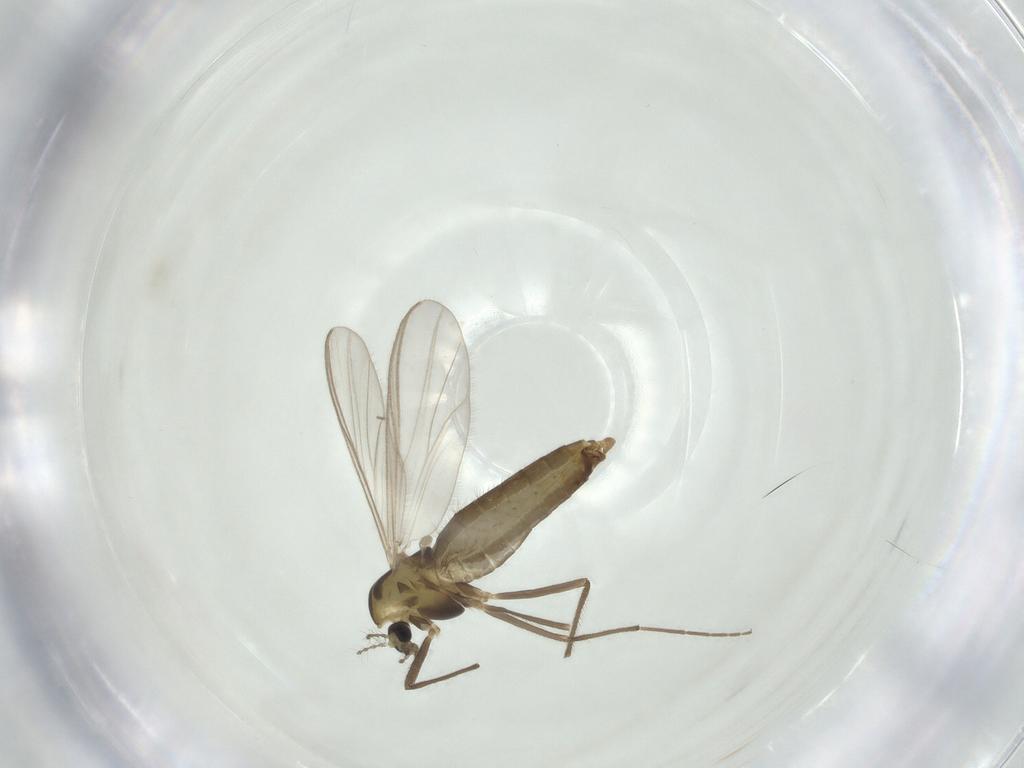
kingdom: Animalia
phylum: Arthropoda
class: Insecta
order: Diptera
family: Chironomidae
